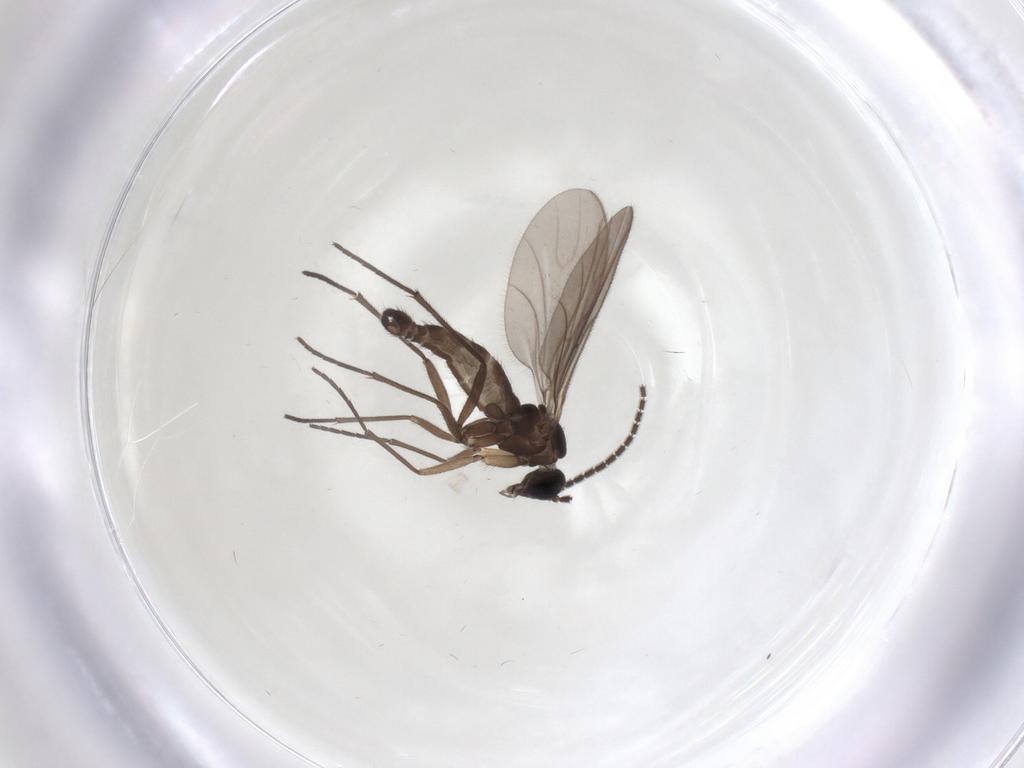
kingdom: Animalia
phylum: Arthropoda
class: Insecta
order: Diptera
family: Sciaridae
